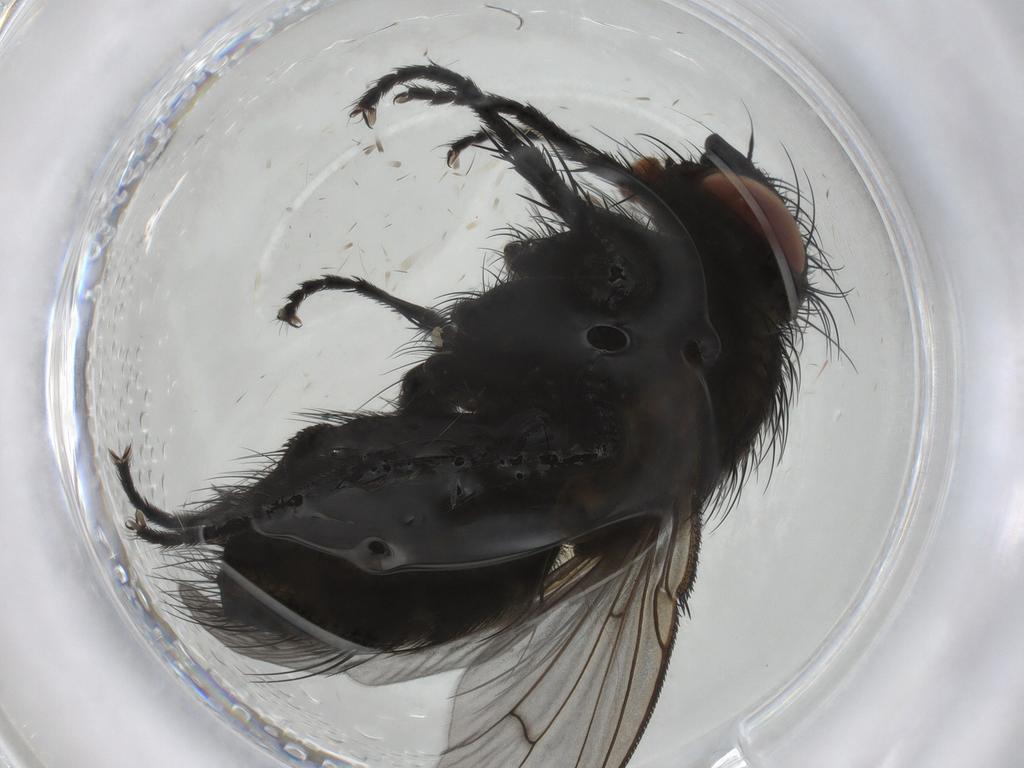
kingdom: Animalia
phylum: Arthropoda
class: Insecta
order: Diptera
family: Tachinidae
